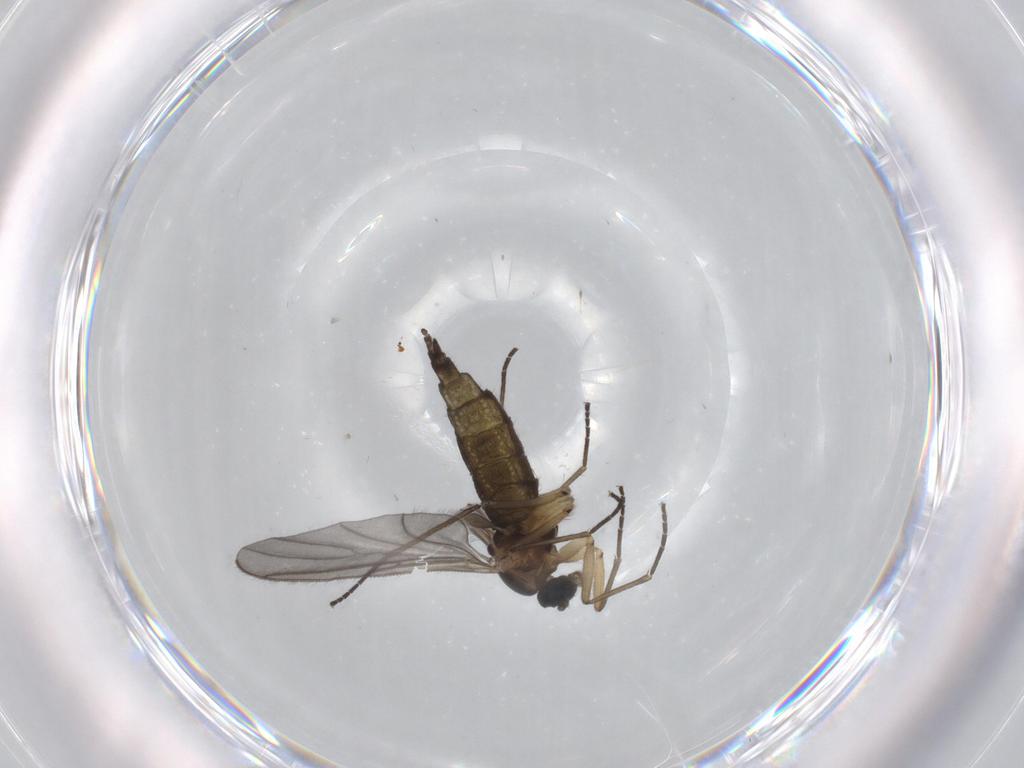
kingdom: Animalia
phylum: Arthropoda
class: Insecta
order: Diptera
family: Sciaridae
